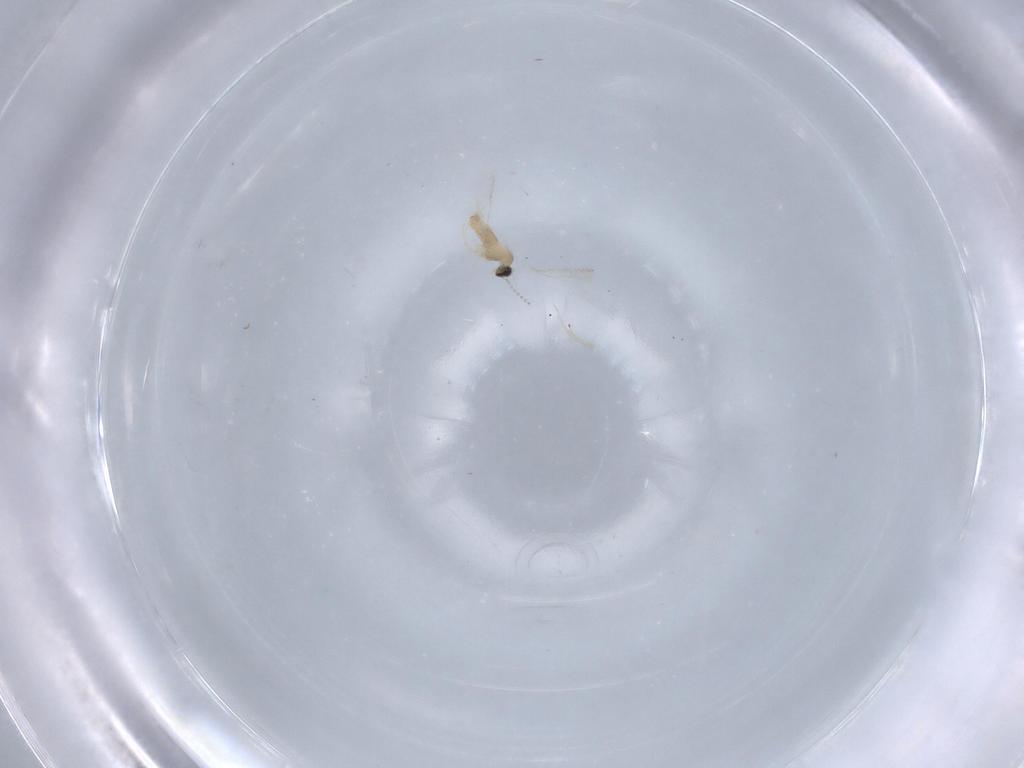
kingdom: Animalia
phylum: Arthropoda
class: Insecta
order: Diptera
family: Cecidomyiidae
